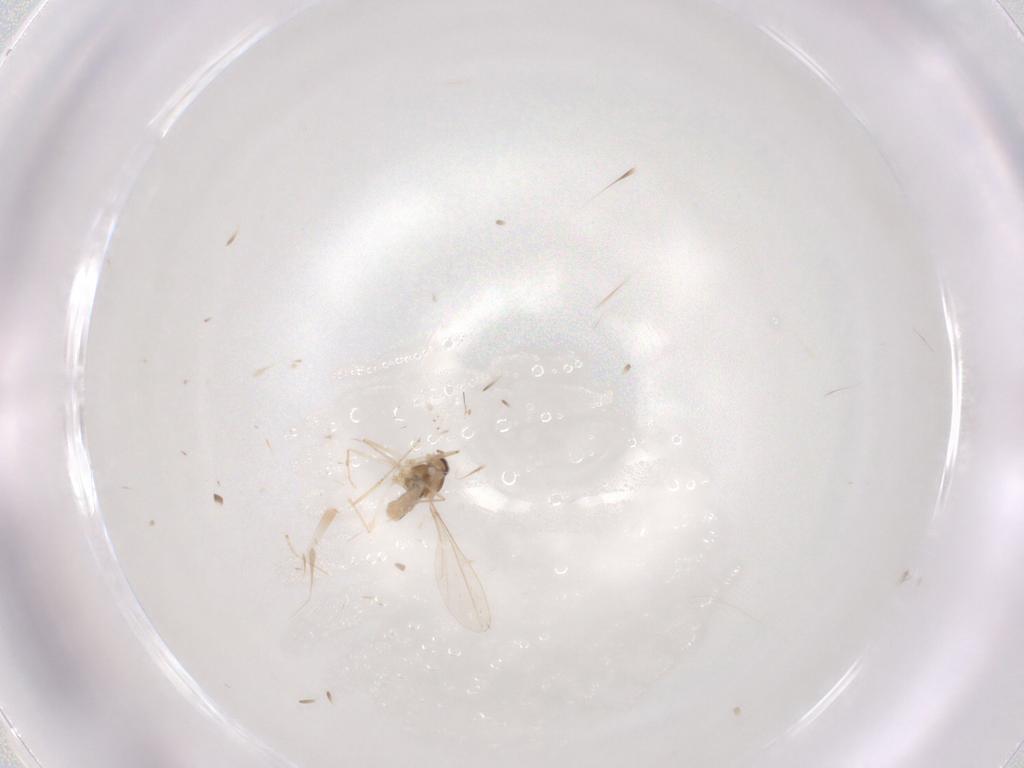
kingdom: Animalia
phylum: Arthropoda
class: Insecta
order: Diptera
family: Cecidomyiidae
